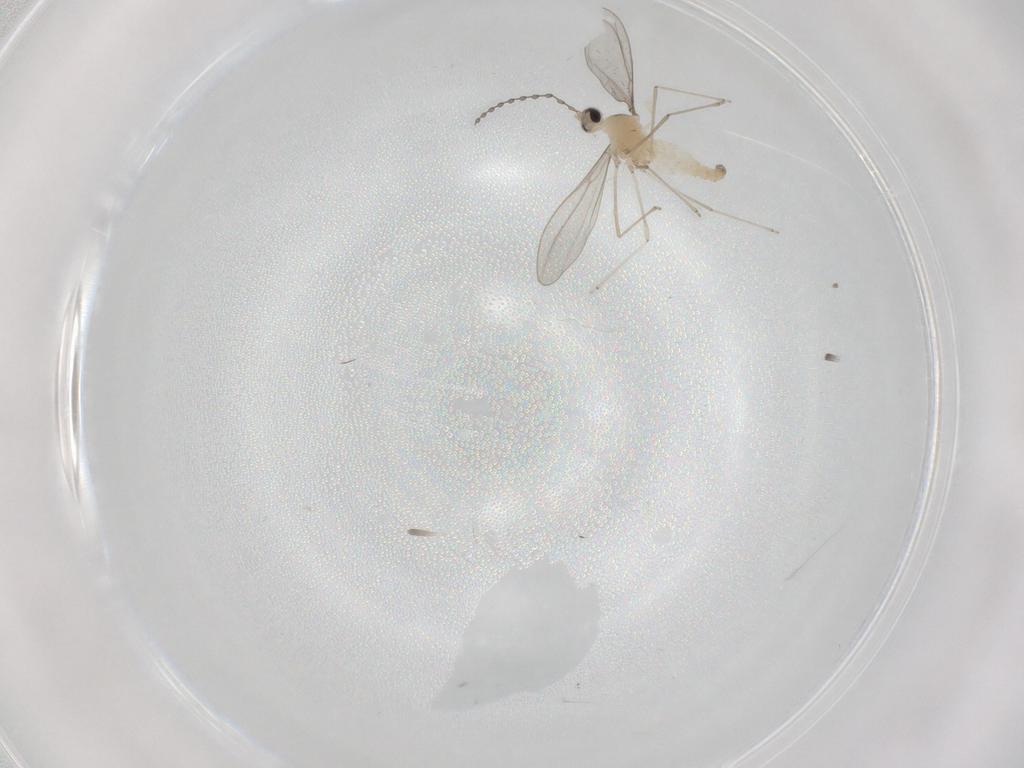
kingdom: Animalia
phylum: Arthropoda
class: Insecta
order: Diptera
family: Cecidomyiidae
